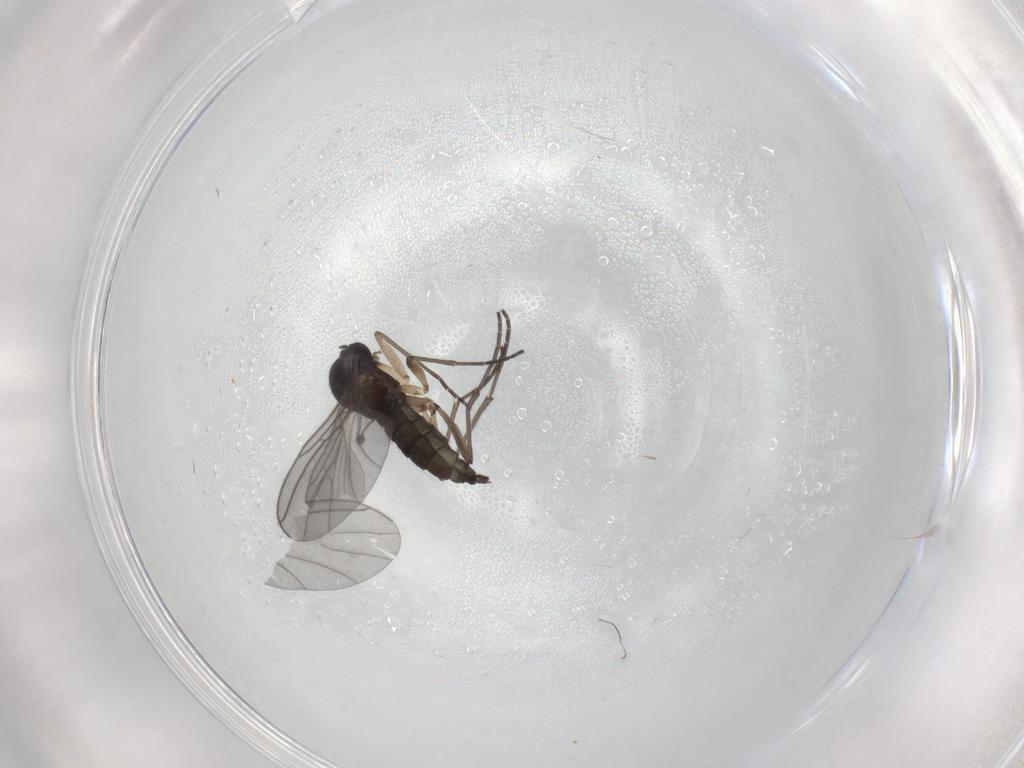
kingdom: Animalia
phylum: Arthropoda
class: Insecta
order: Diptera
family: Sciaridae
